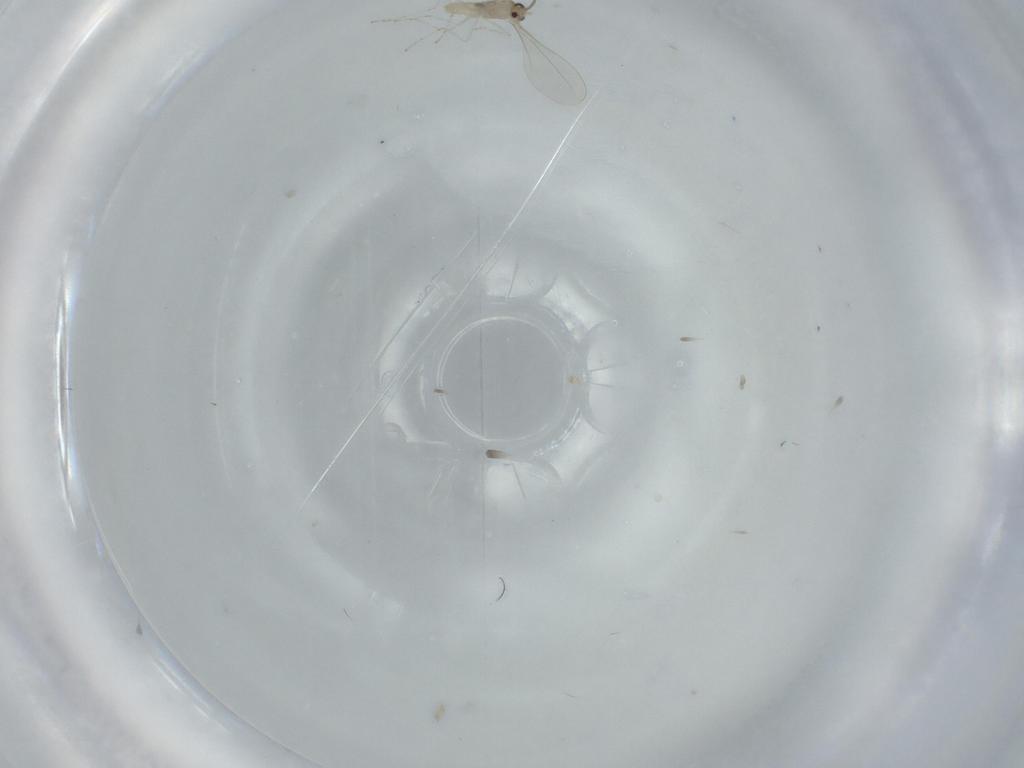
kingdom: Animalia
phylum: Arthropoda
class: Insecta
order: Diptera
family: Cecidomyiidae
